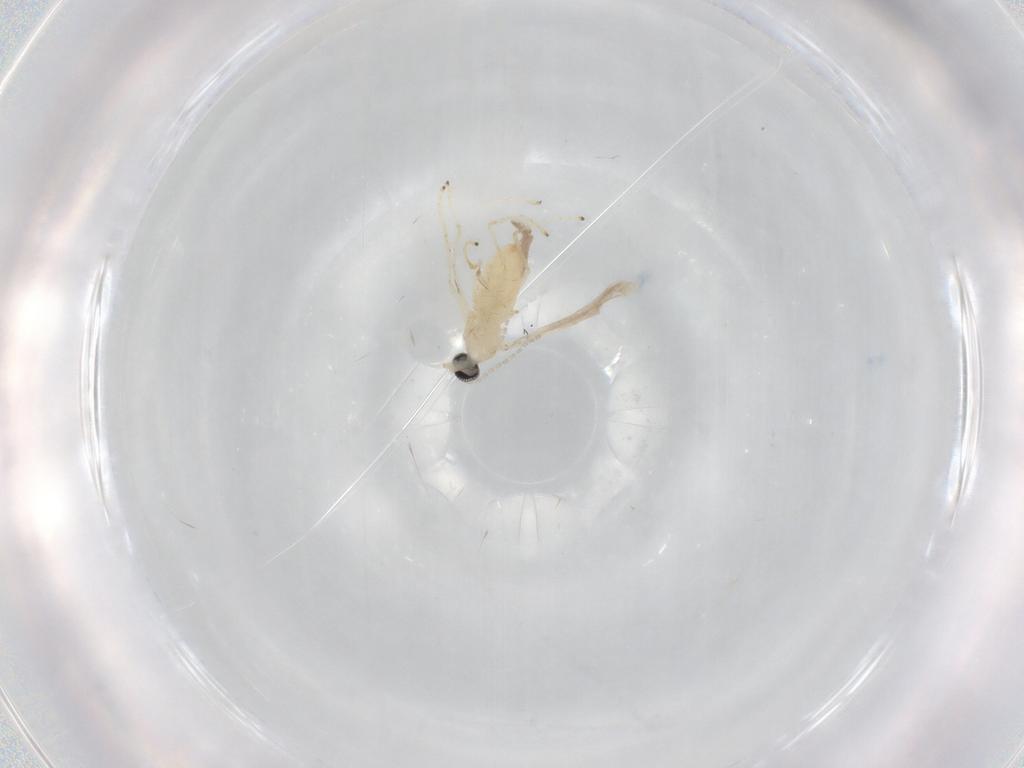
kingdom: Animalia
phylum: Arthropoda
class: Insecta
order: Diptera
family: Cecidomyiidae
